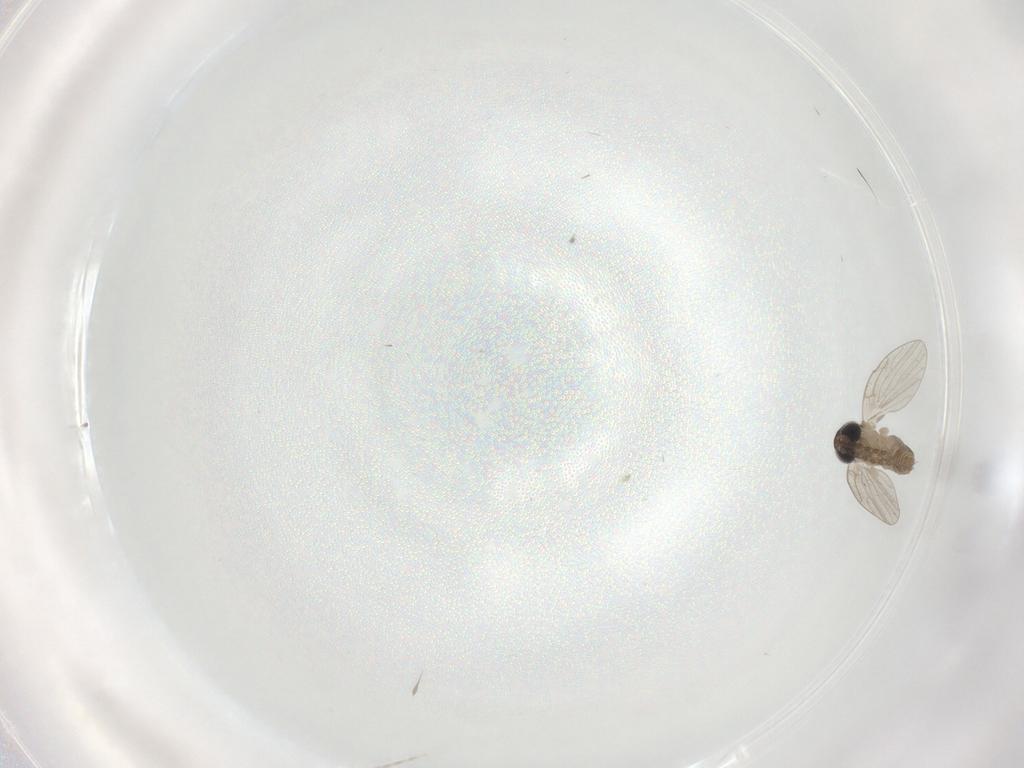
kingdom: Animalia
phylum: Arthropoda
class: Insecta
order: Diptera
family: Psychodidae
